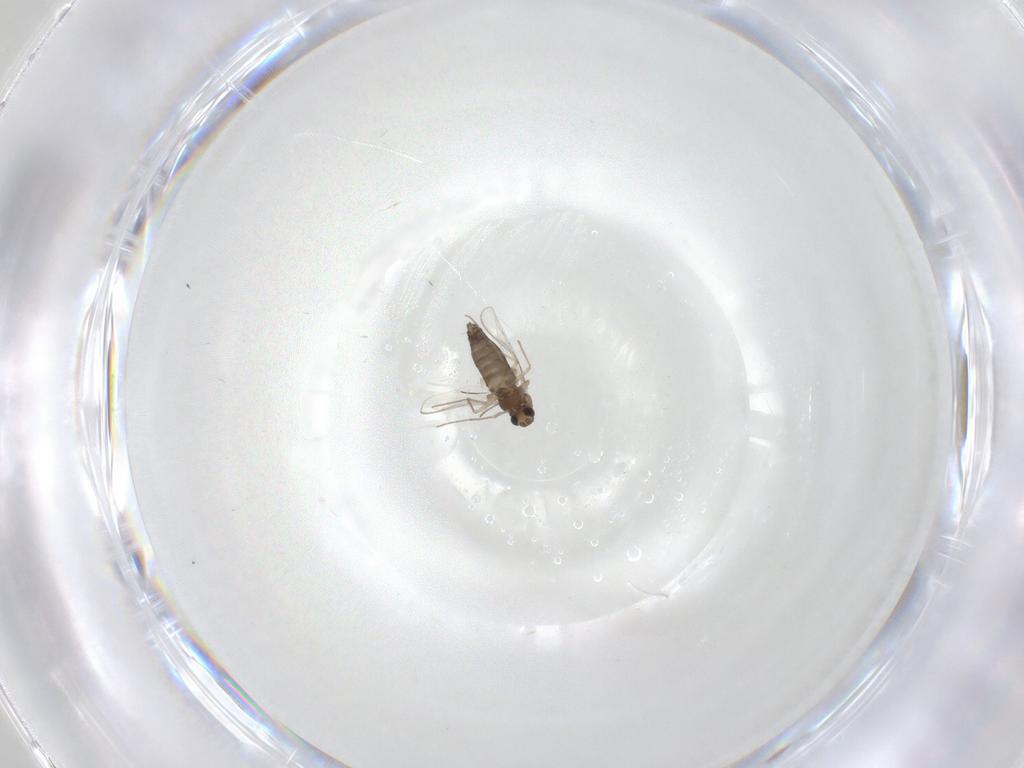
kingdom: Animalia
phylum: Arthropoda
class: Insecta
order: Diptera
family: Chironomidae
